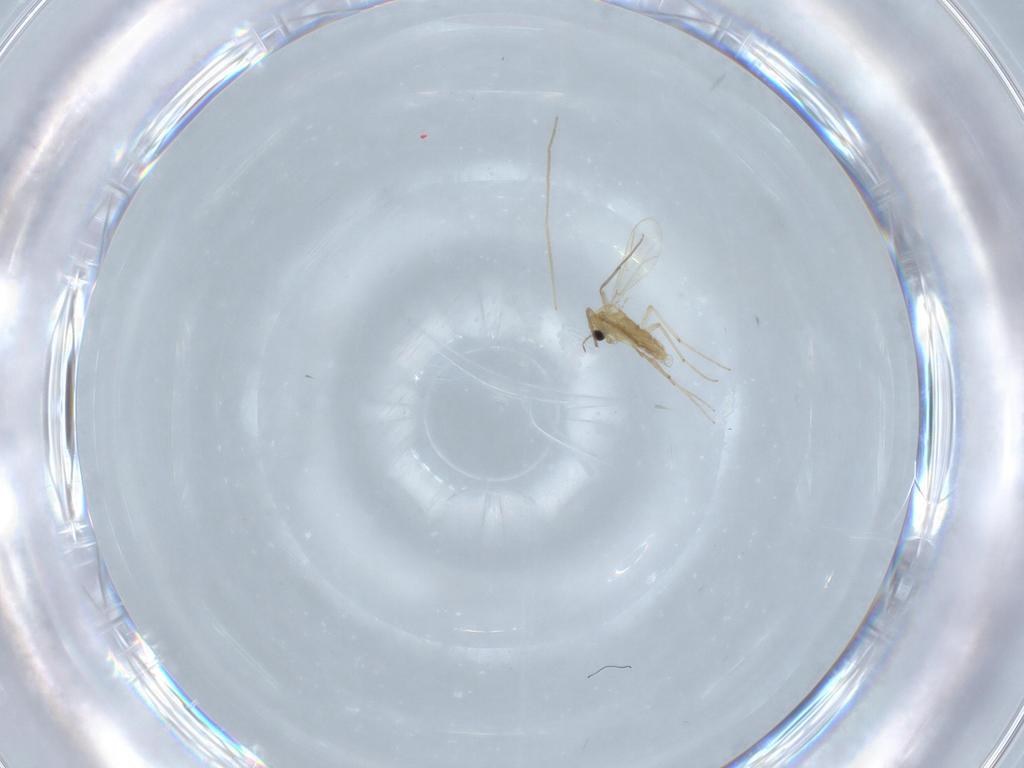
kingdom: Animalia
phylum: Arthropoda
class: Insecta
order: Diptera
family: Chironomidae
